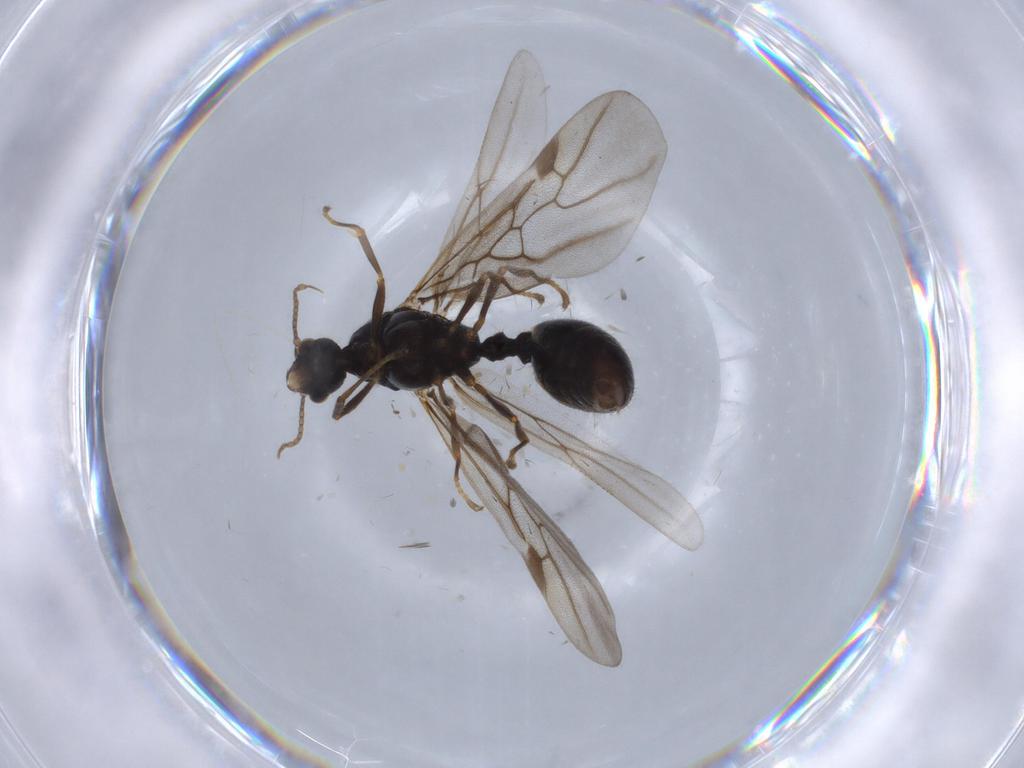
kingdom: Animalia
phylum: Arthropoda
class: Insecta
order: Hymenoptera
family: Formicidae
